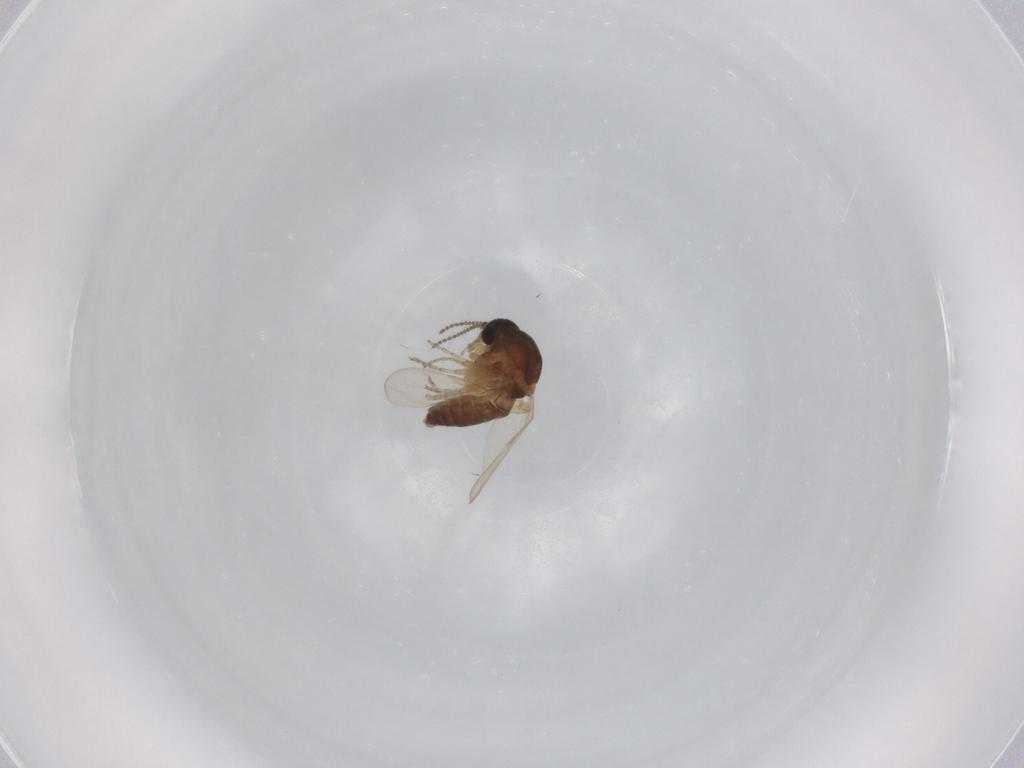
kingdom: Animalia
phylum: Arthropoda
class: Insecta
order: Diptera
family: Ceratopogonidae
